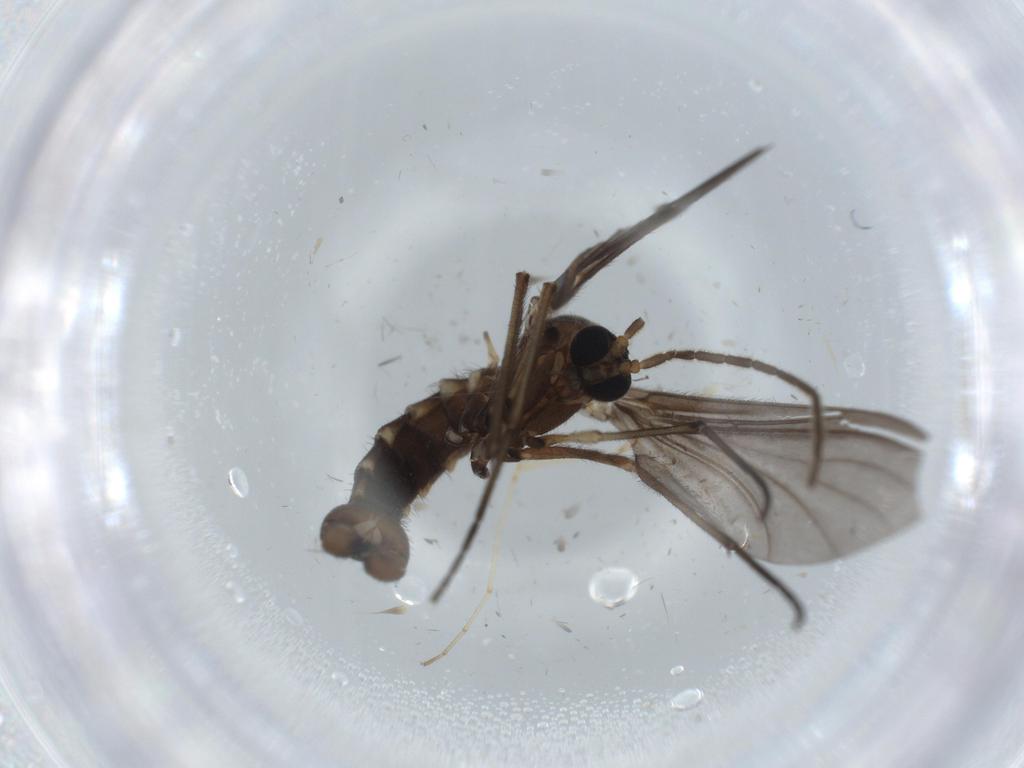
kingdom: Animalia
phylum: Arthropoda
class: Insecta
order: Diptera
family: Sciaridae
